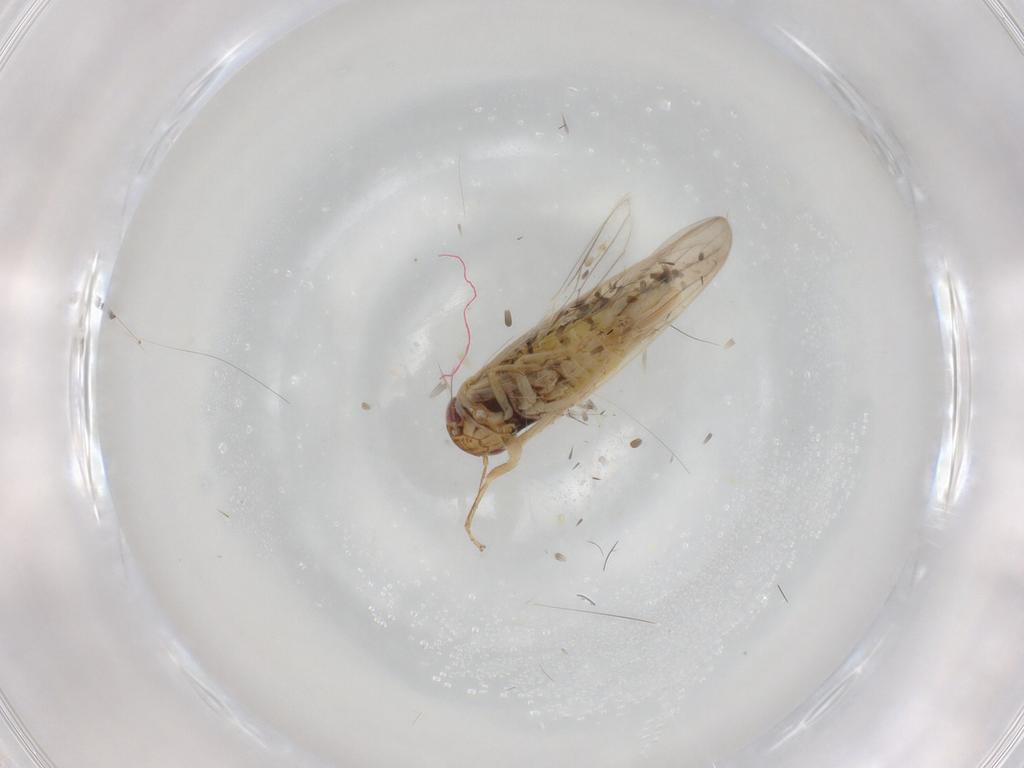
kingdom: Animalia
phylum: Arthropoda
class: Insecta
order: Hemiptera
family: Cicadellidae
